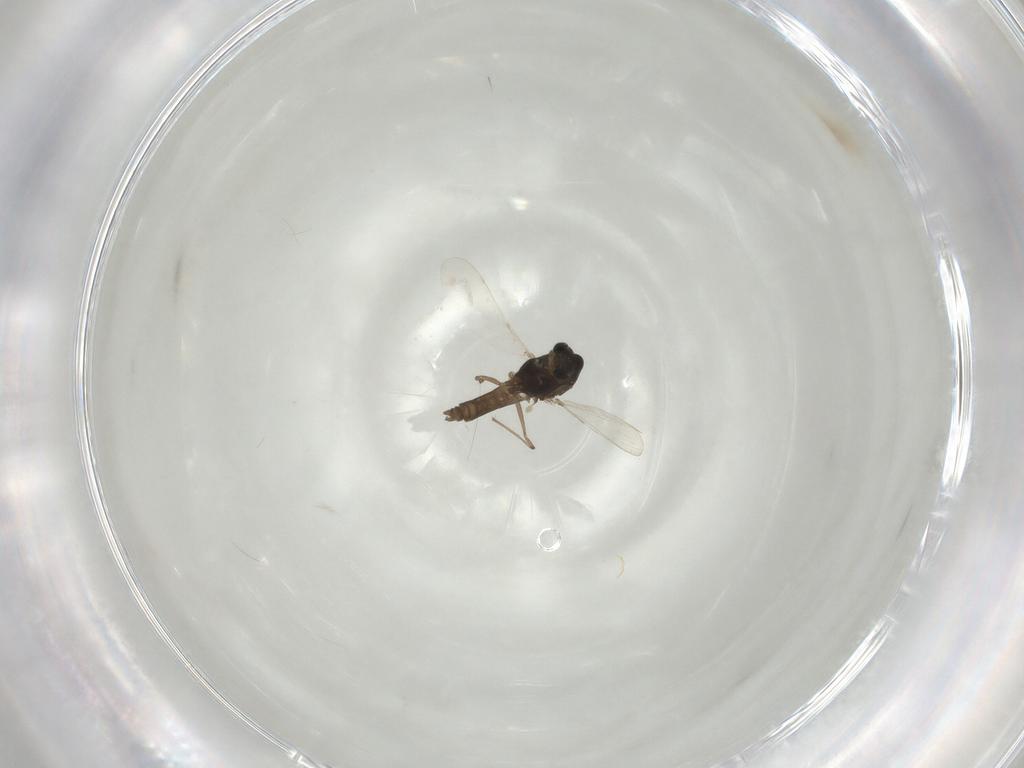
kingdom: Animalia
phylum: Arthropoda
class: Insecta
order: Diptera
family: Chironomidae
